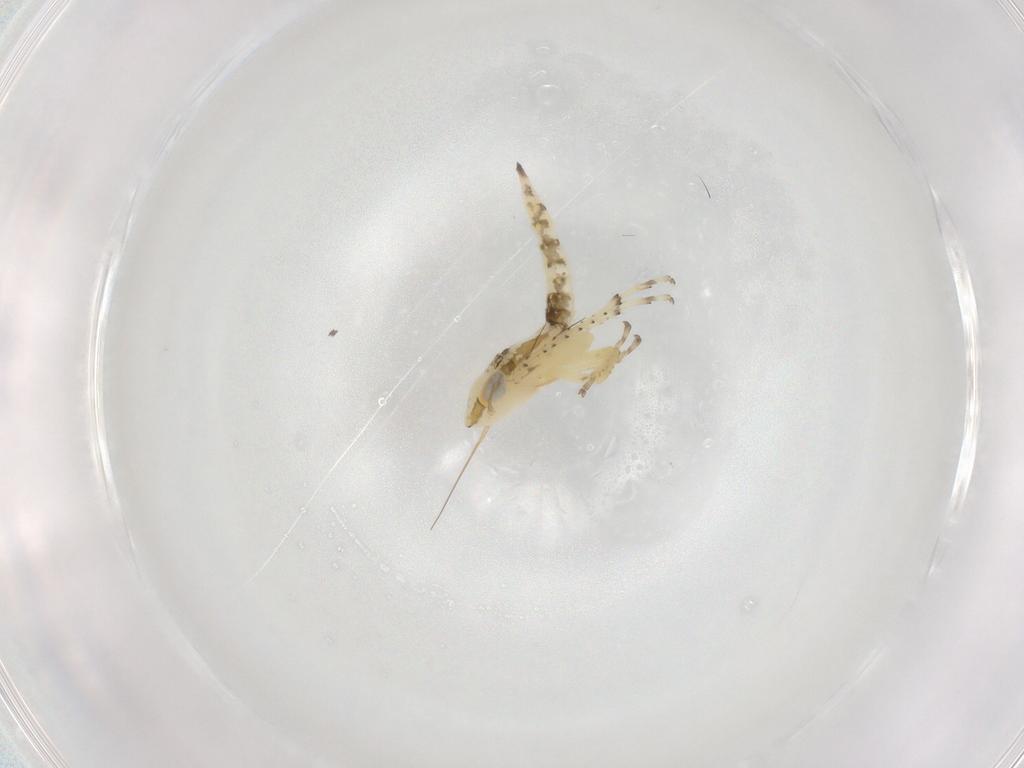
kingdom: Animalia
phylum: Arthropoda
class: Insecta
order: Hemiptera
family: Cicadellidae
